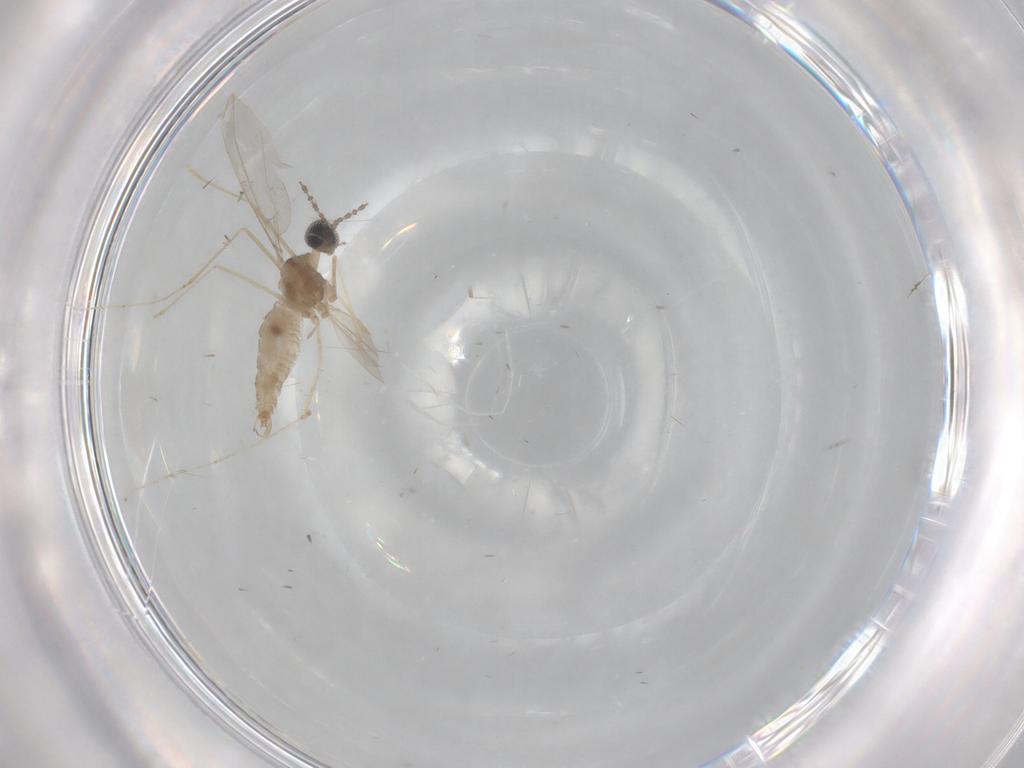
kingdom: Animalia
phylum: Arthropoda
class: Insecta
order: Diptera
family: Cecidomyiidae
